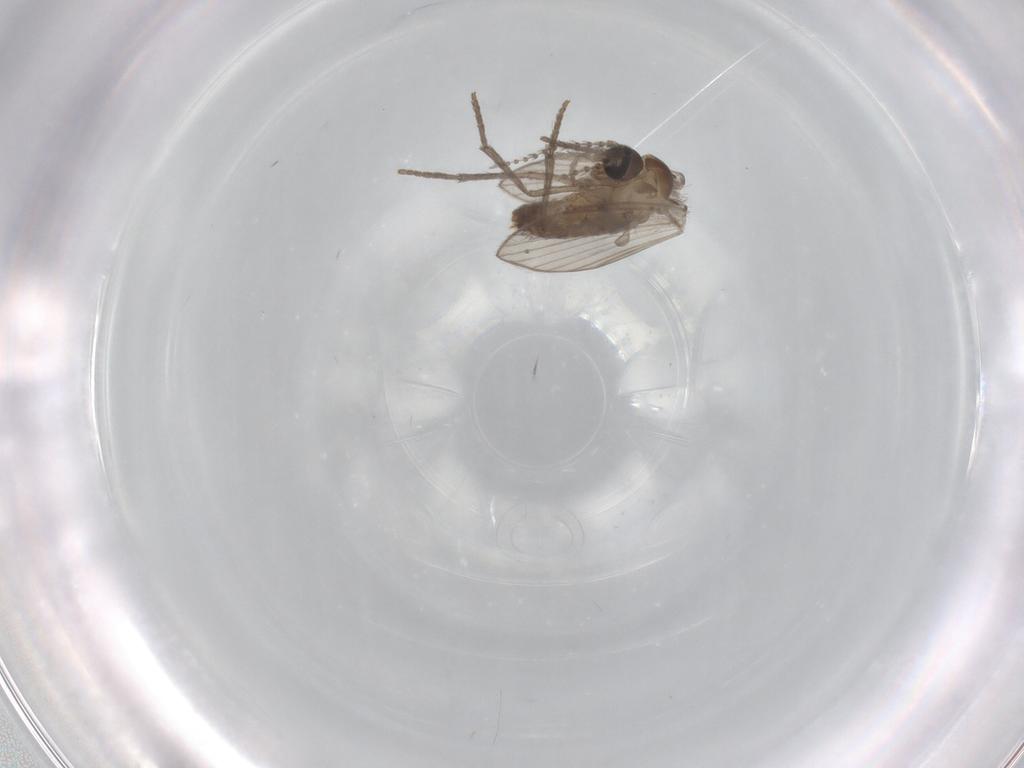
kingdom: Animalia
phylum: Arthropoda
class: Insecta
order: Diptera
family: Psychodidae
